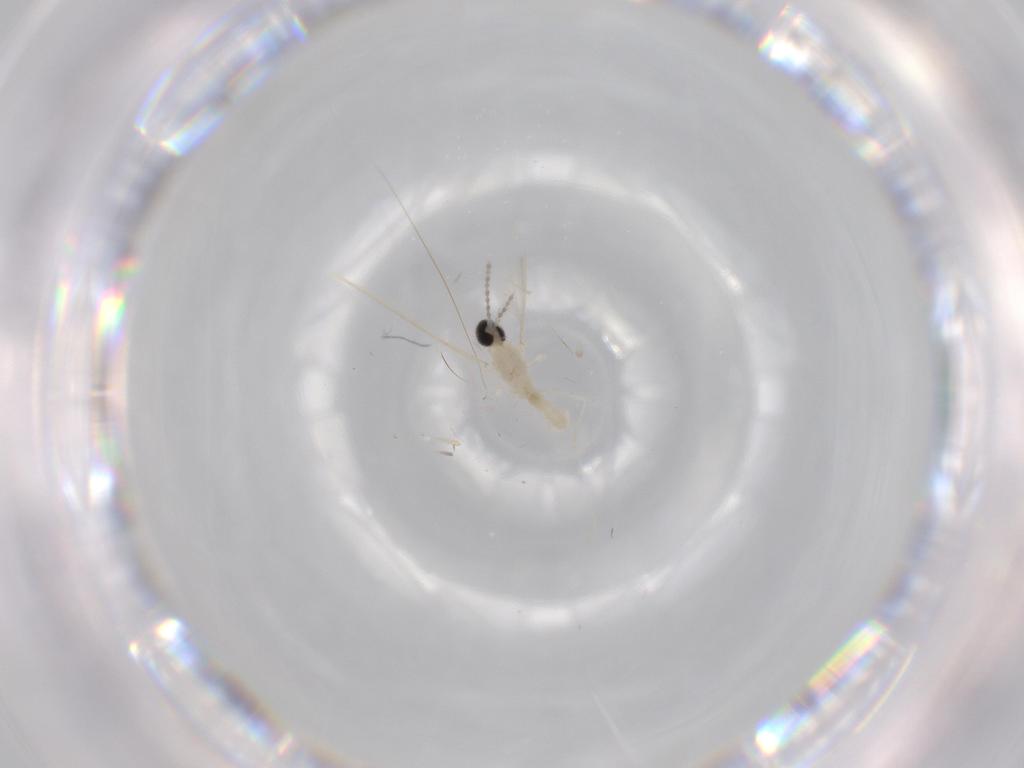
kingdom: Animalia
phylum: Arthropoda
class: Insecta
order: Diptera
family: Cecidomyiidae
